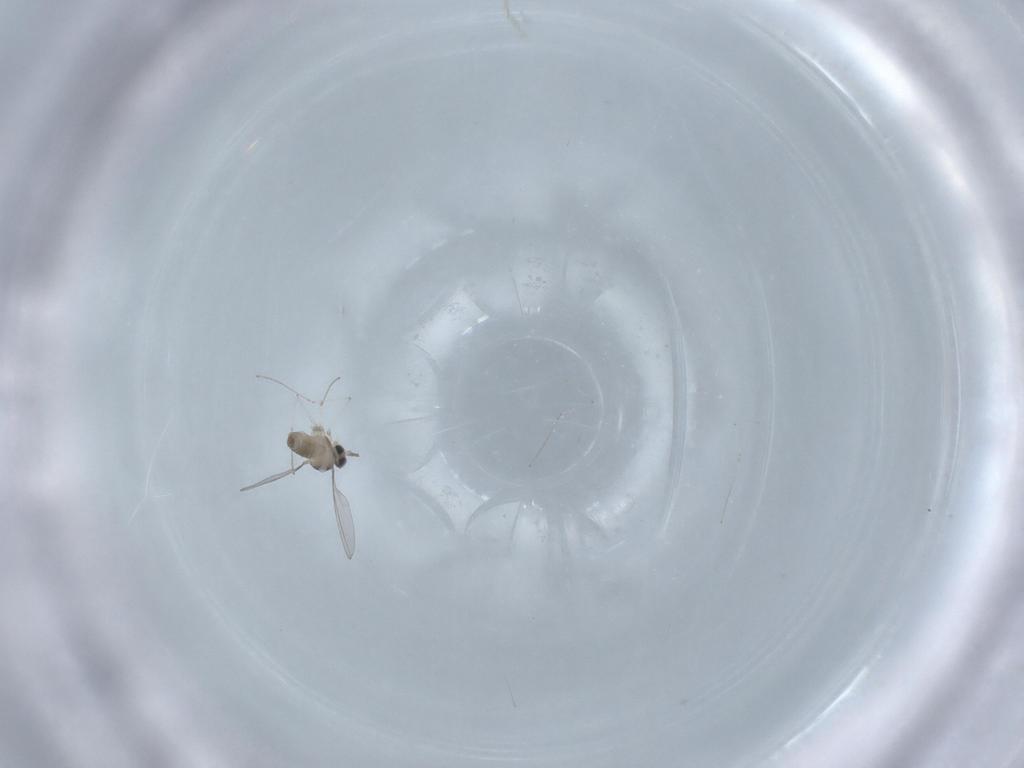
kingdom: Animalia
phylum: Arthropoda
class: Insecta
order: Diptera
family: Cecidomyiidae
